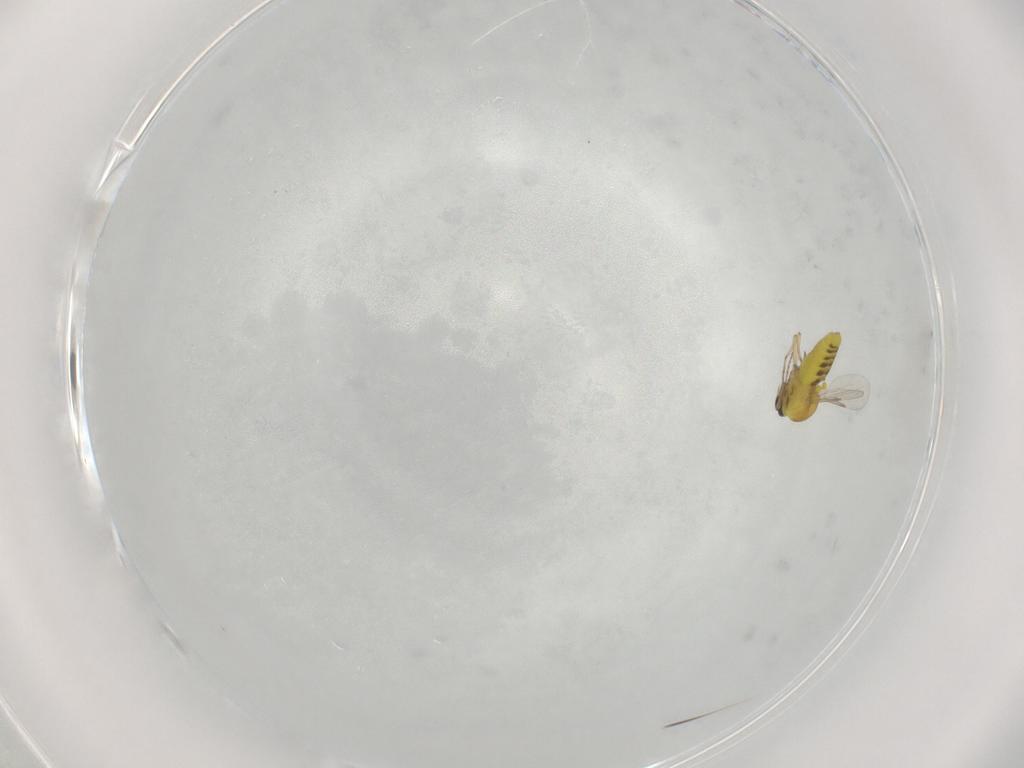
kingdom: Animalia
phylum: Arthropoda
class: Insecta
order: Diptera
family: Ceratopogonidae
